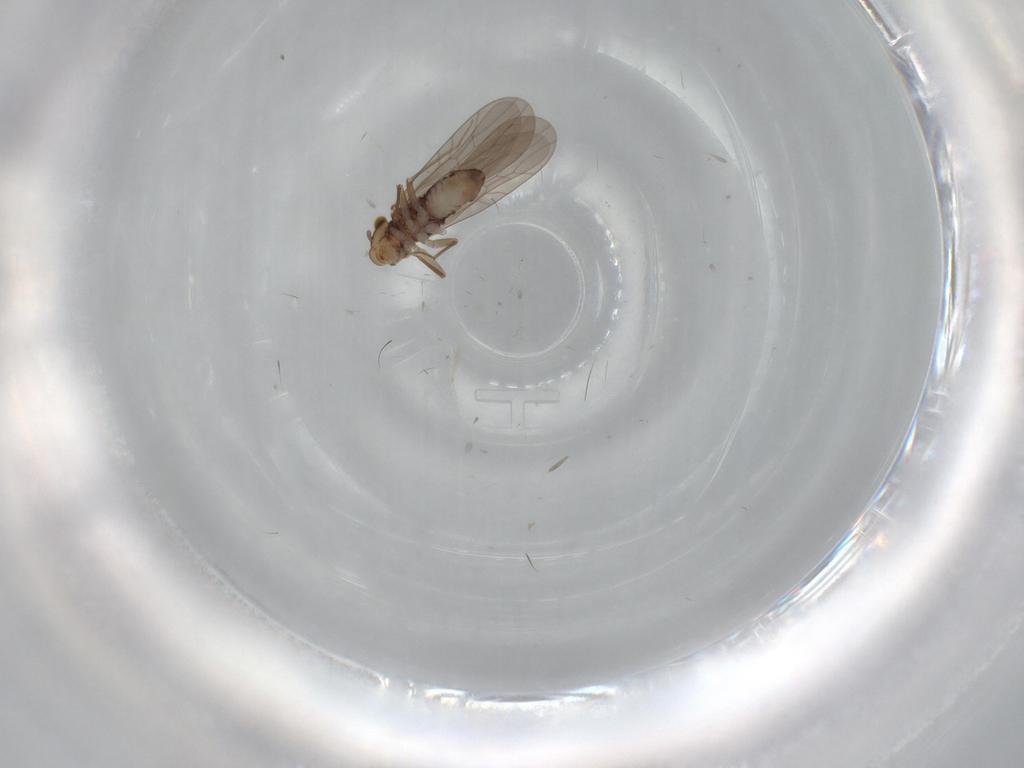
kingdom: Animalia
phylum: Arthropoda
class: Insecta
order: Psocodea
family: Lepidopsocidae
